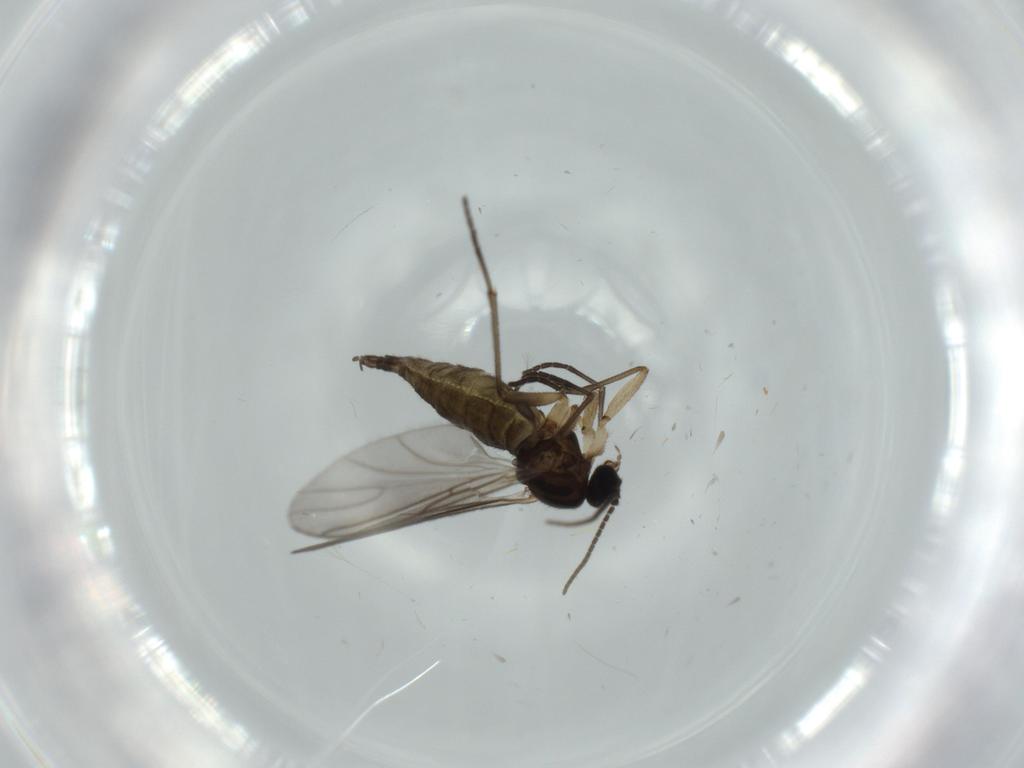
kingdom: Animalia
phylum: Arthropoda
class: Insecta
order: Diptera
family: Sciaridae
